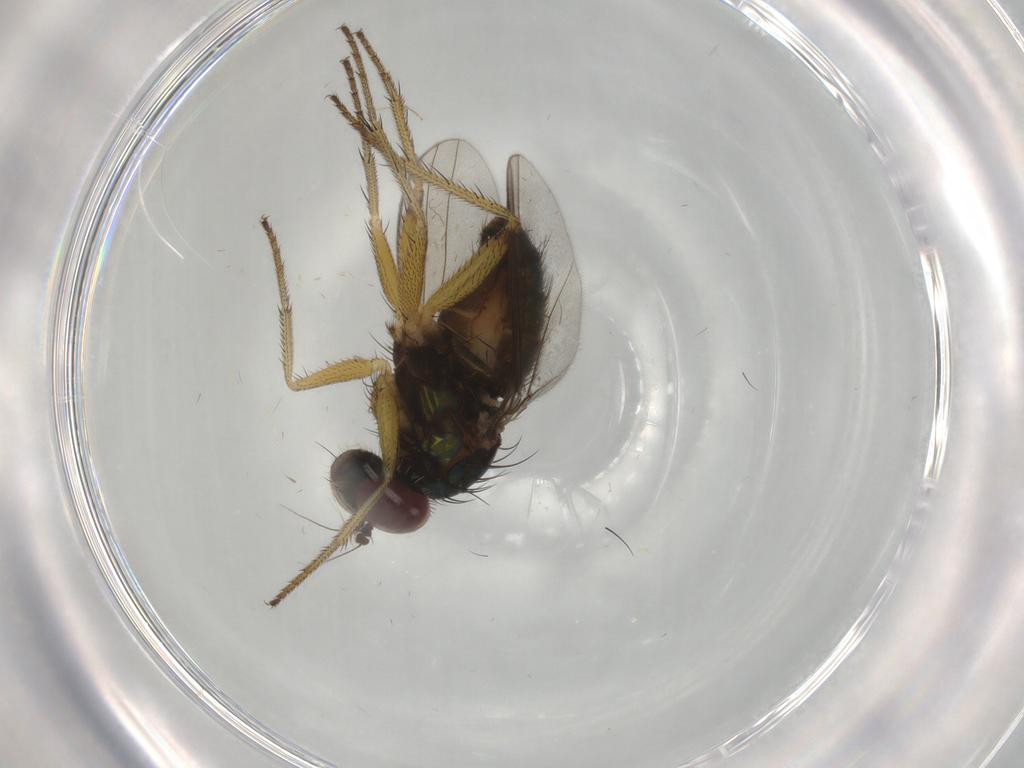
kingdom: Animalia
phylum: Arthropoda
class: Insecta
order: Diptera
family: Dolichopodidae
